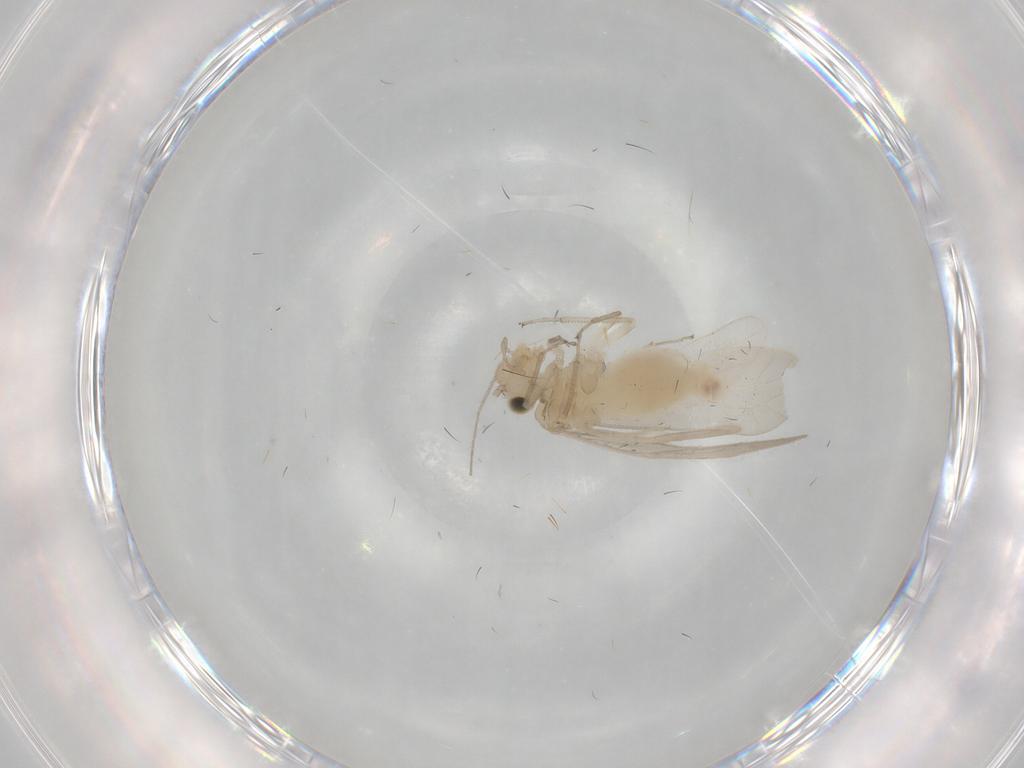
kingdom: Animalia
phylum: Arthropoda
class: Insecta
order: Psocodea
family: Stenopsocidae
